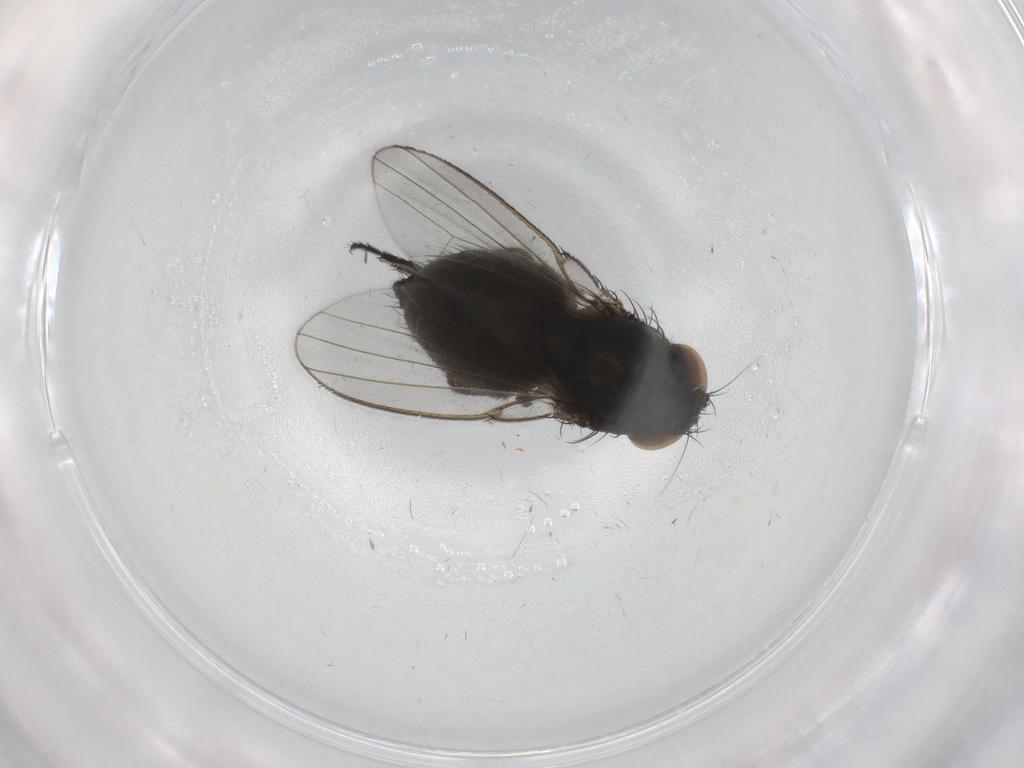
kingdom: Animalia
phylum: Arthropoda
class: Insecta
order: Diptera
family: Milichiidae
